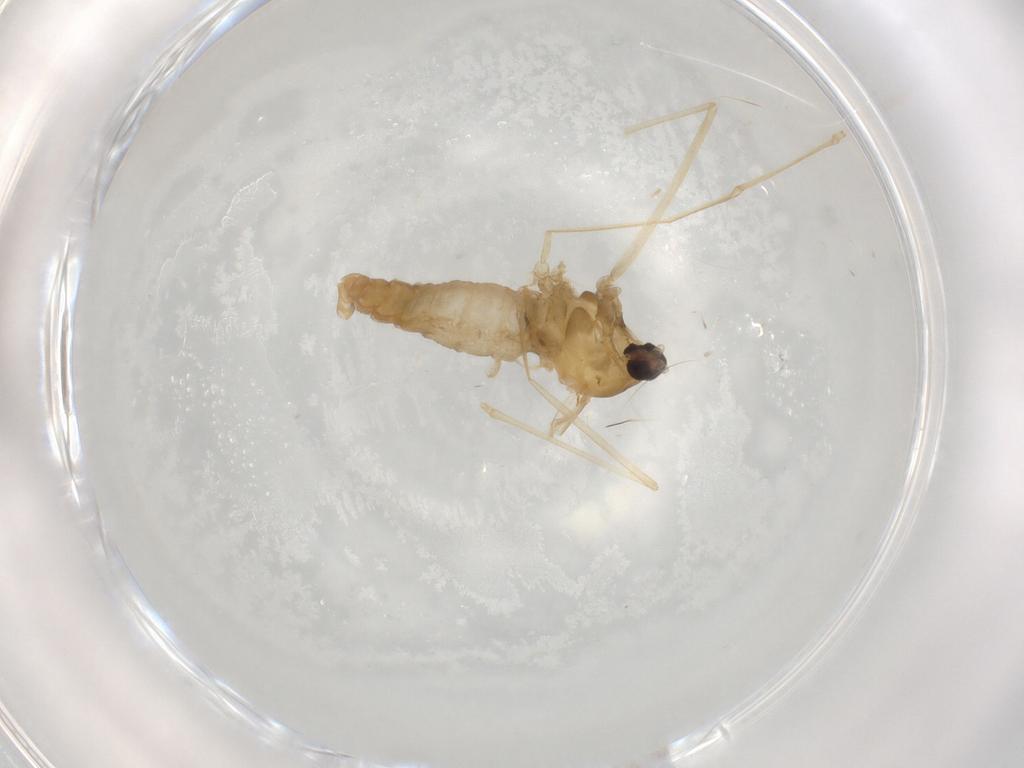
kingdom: Animalia
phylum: Arthropoda
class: Insecta
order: Diptera
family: Cecidomyiidae
